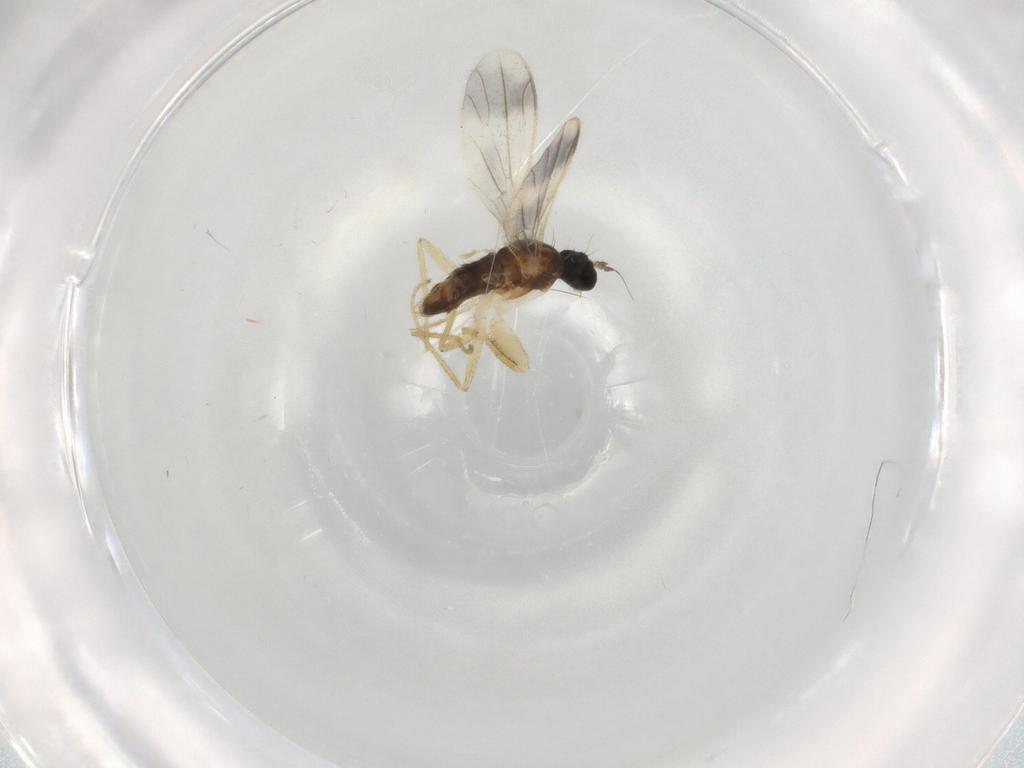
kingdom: Animalia
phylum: Arthropoda
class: Insecta
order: Diptera
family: Empididae
